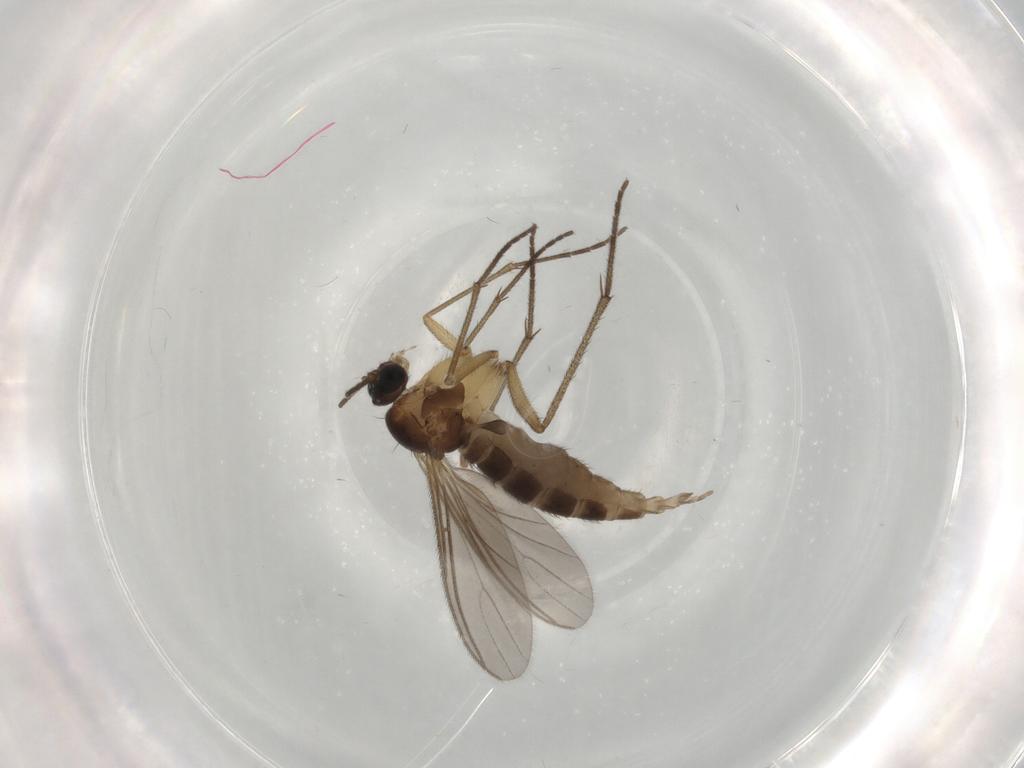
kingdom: Animalia
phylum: Arthropoda
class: Insecta
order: Diptera
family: Sciaridae
